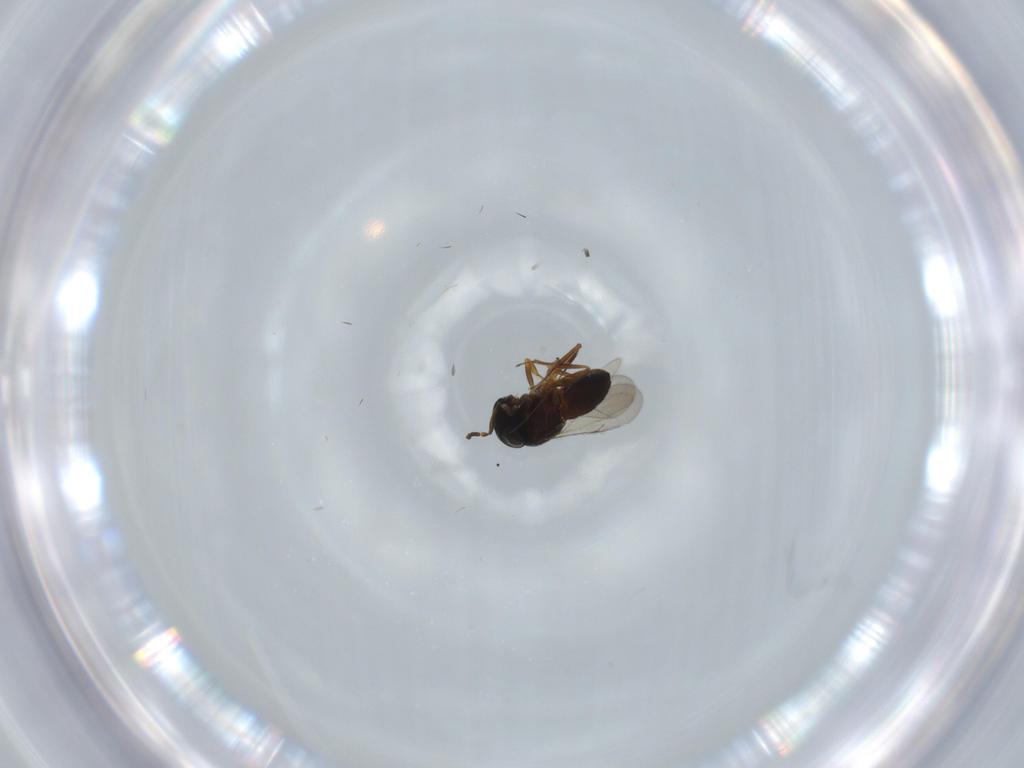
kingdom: Animalia
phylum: Arthropoda
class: Insecta
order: Hymenoptera
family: Scelionidae
